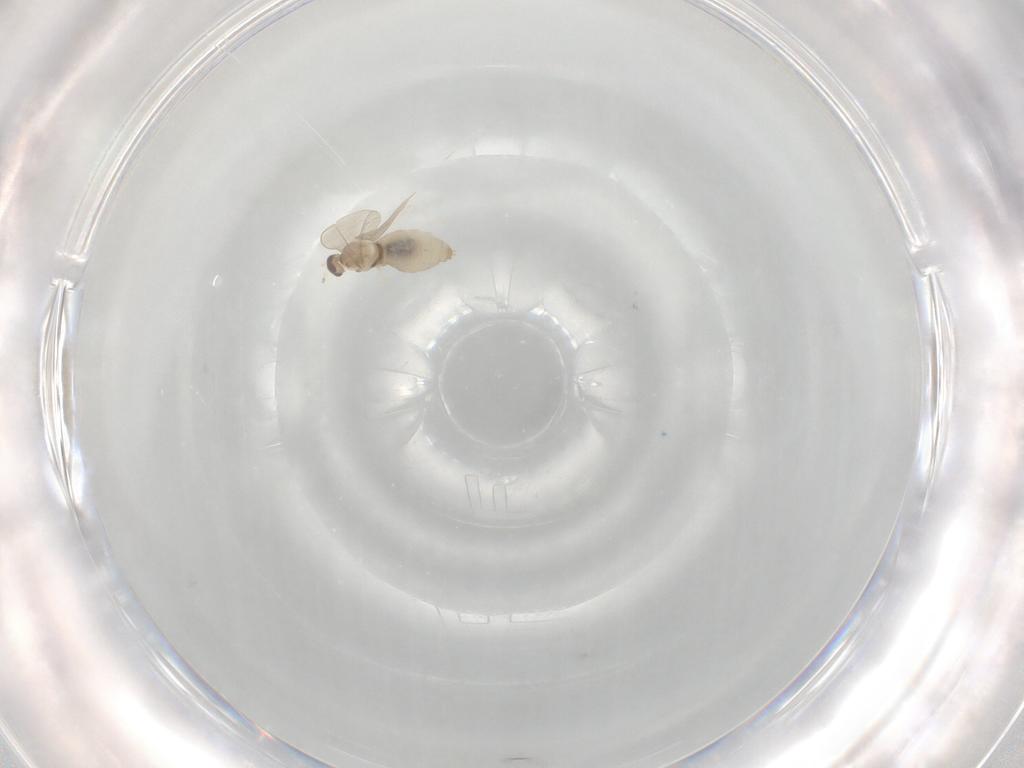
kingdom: Animalia
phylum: Arthropoda
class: Insecta
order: Diptera
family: Cecidomyiidae
